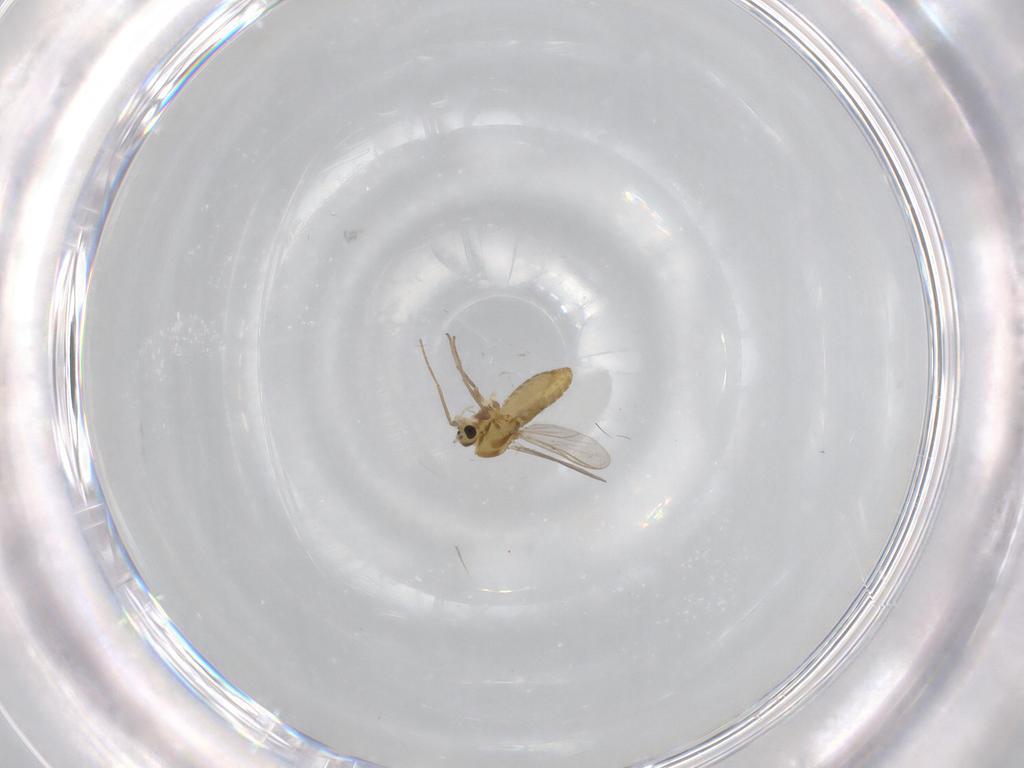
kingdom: Animalia
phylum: Arthropoda
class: Insecta
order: Diptera
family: Chironomidae
